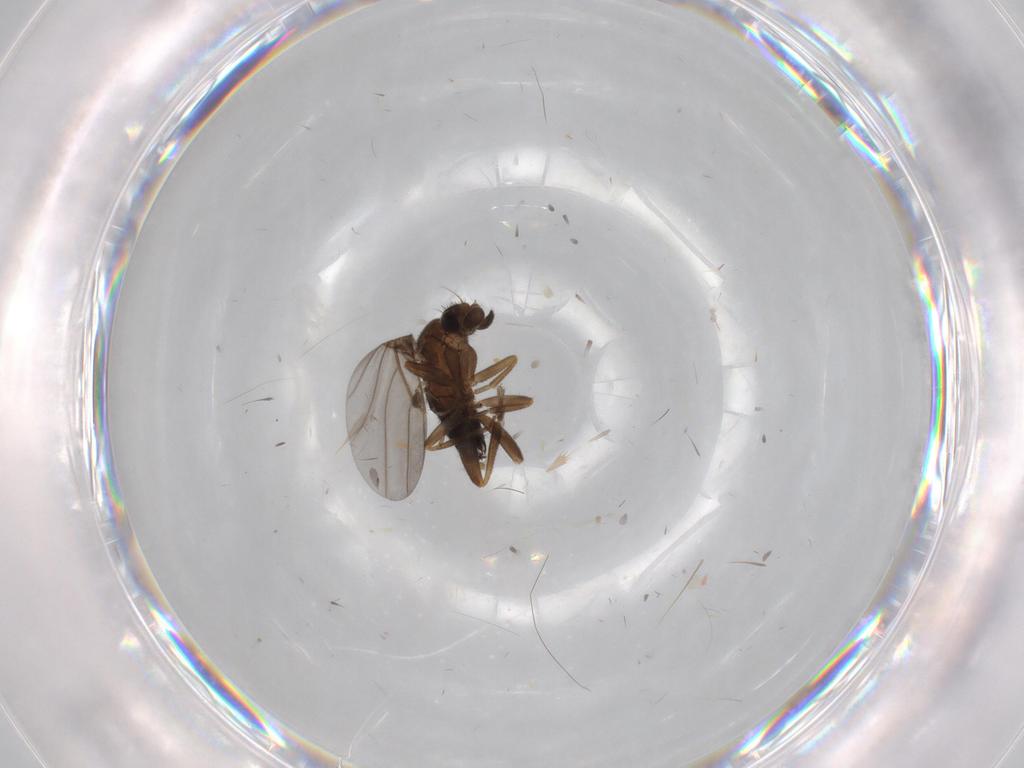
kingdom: Animalia
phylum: Arthropoda
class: Insecta
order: Diptera
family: Phoridae
